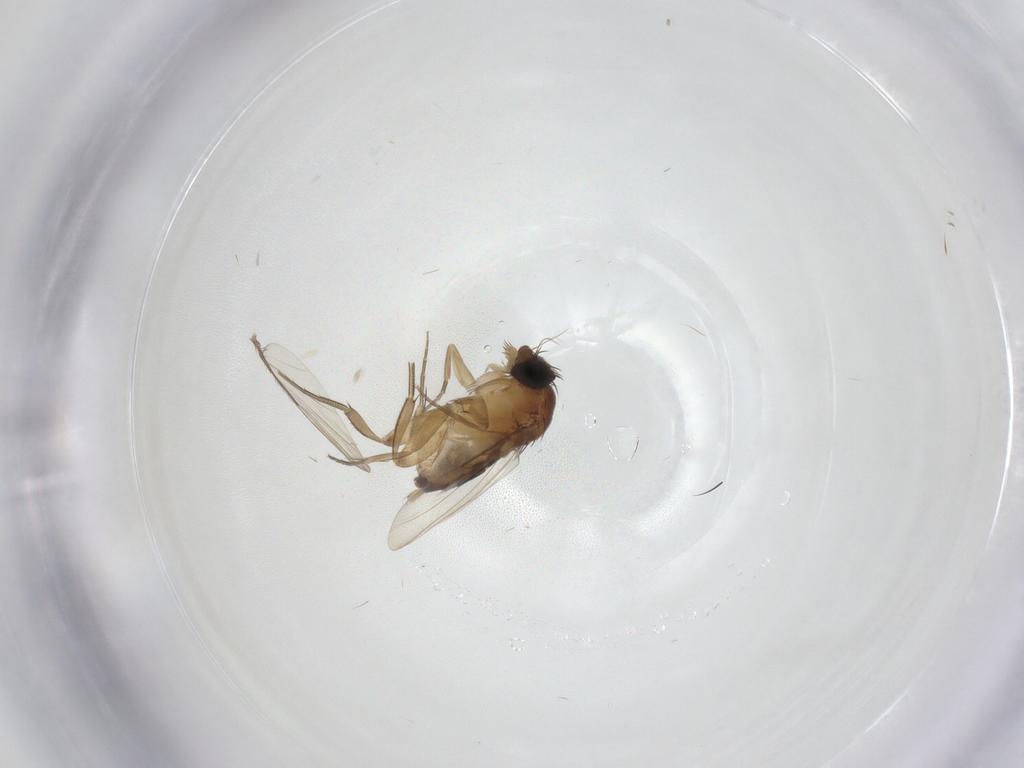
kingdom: Animalia
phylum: Arthropoda
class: Insecta
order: Diptera
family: Phoridae
